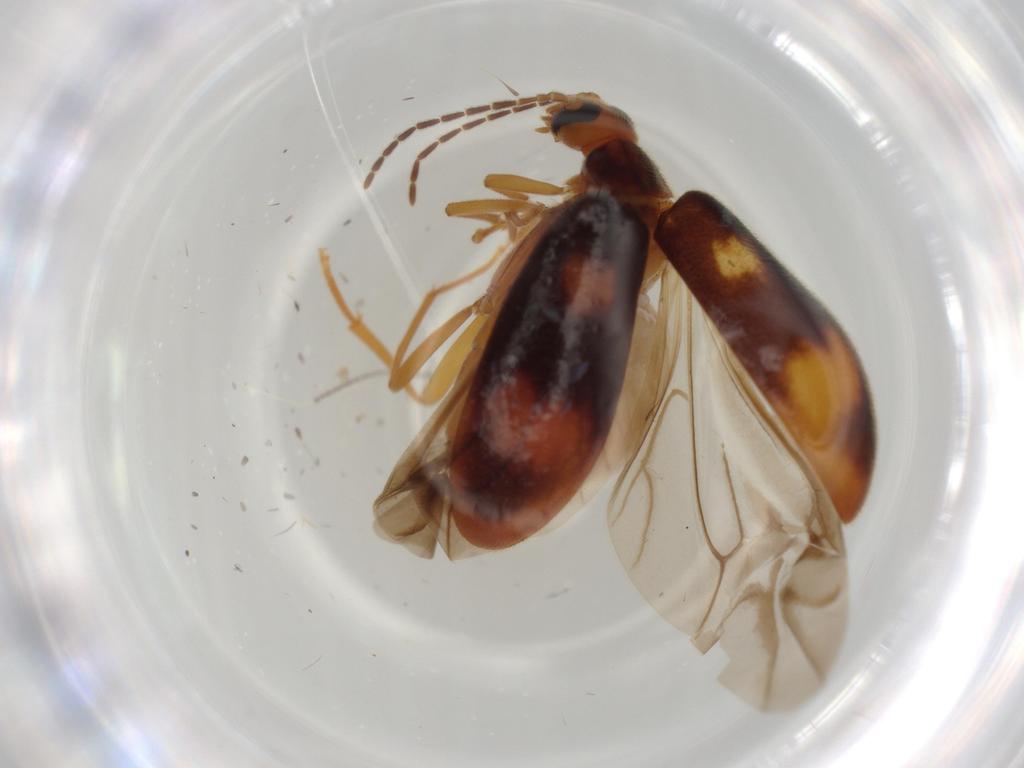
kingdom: Animalia
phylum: Arthropoda
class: Insecta
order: Coleoptera
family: Scraptiidae
